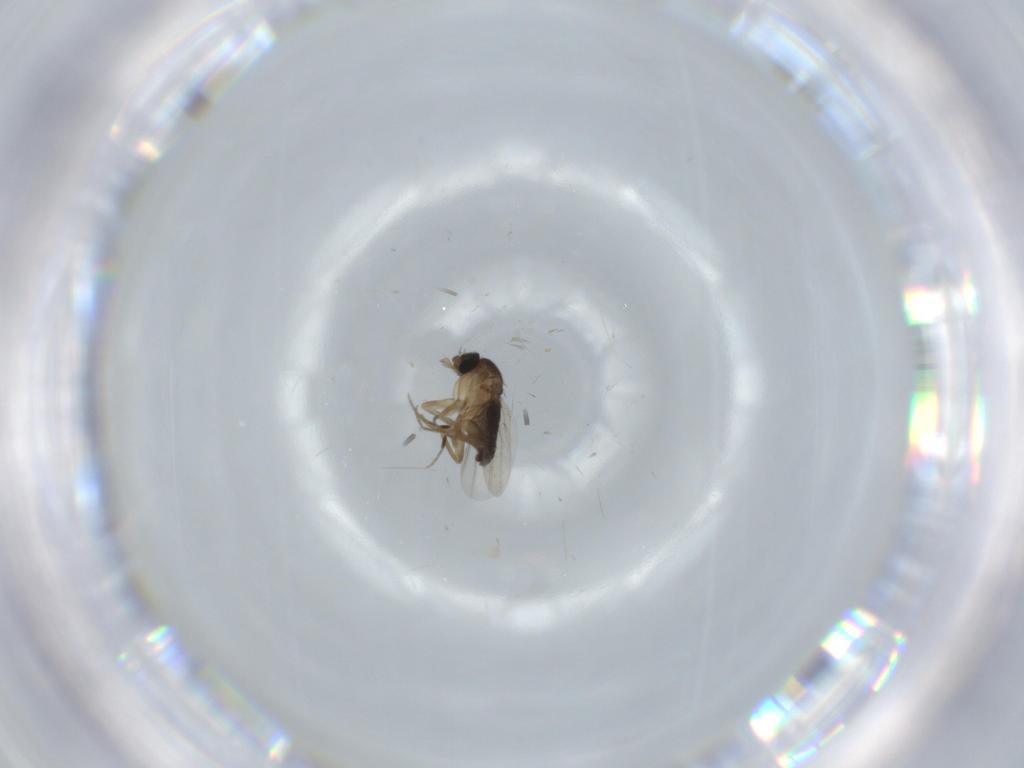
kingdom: Animalia
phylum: Arthropoda
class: Insecta
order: Diptera
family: Phoridae
